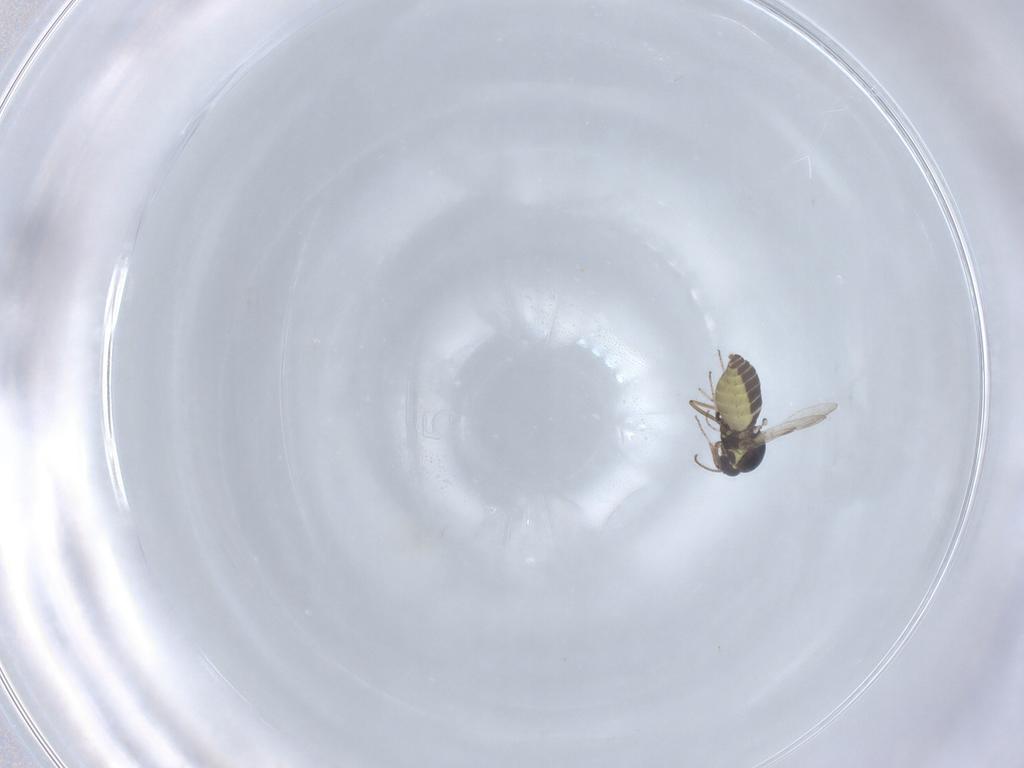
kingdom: Animalia
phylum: Arthropoda
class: Insecta
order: Diptera
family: Ceratopogonidae
